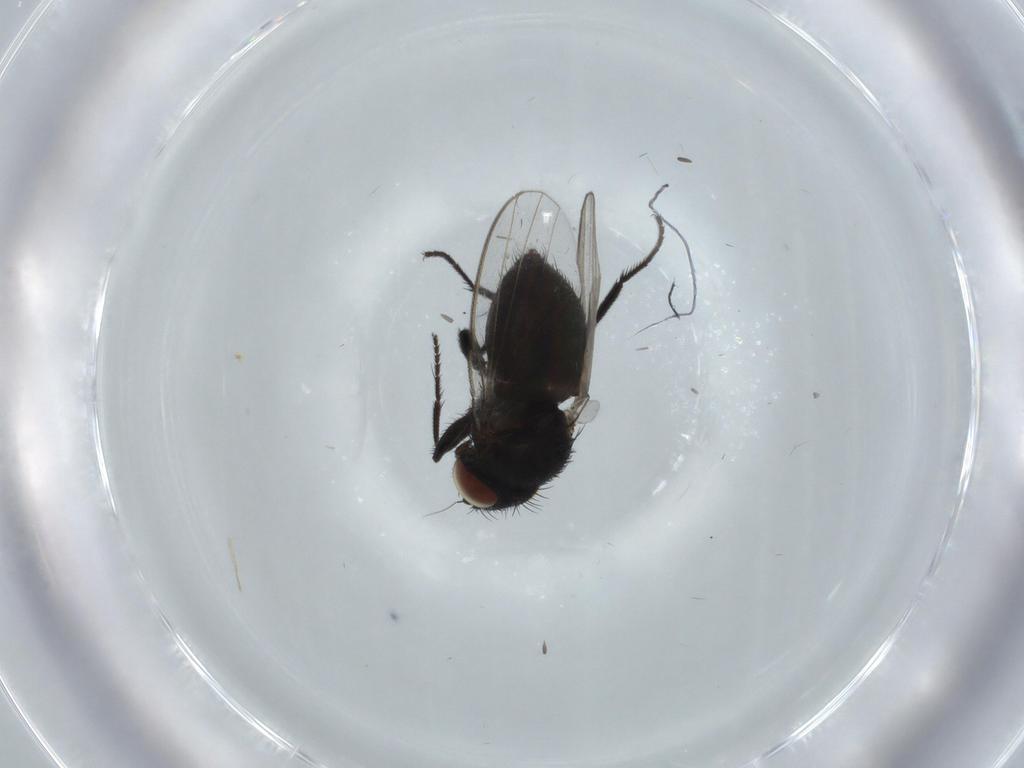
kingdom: Animalia
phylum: Arthropoda
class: Insecta
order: Diptera
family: Milichiidae
